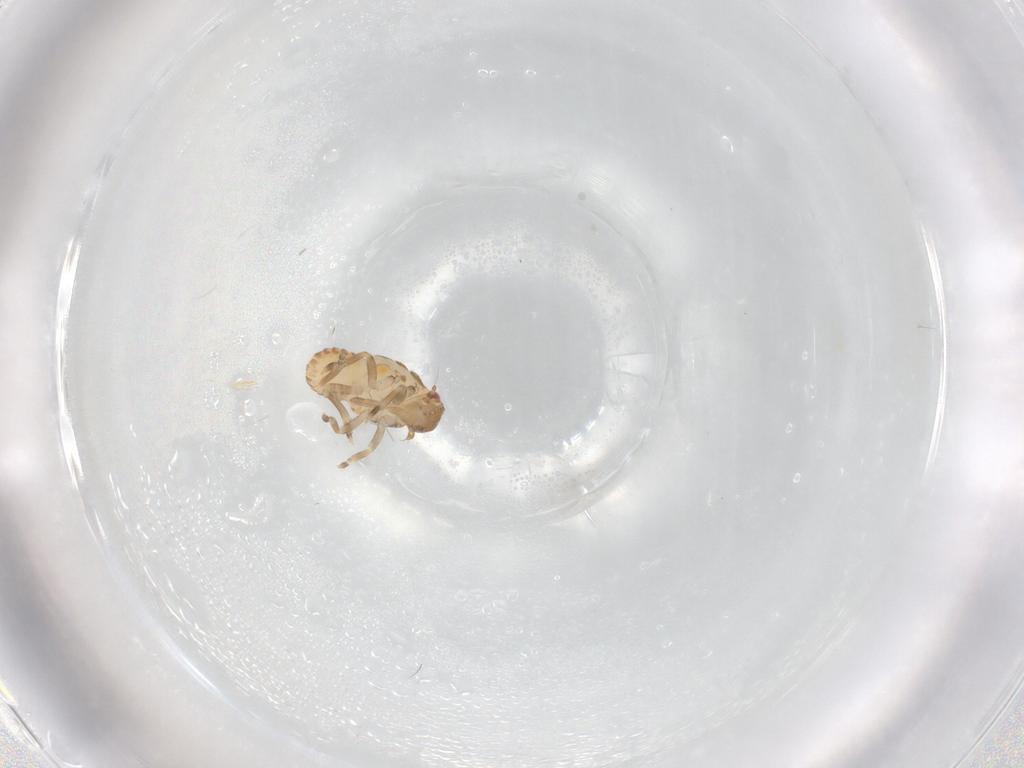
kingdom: Animalia
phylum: Arthropoda
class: Insecta
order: Hemiptera
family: Flatidae
